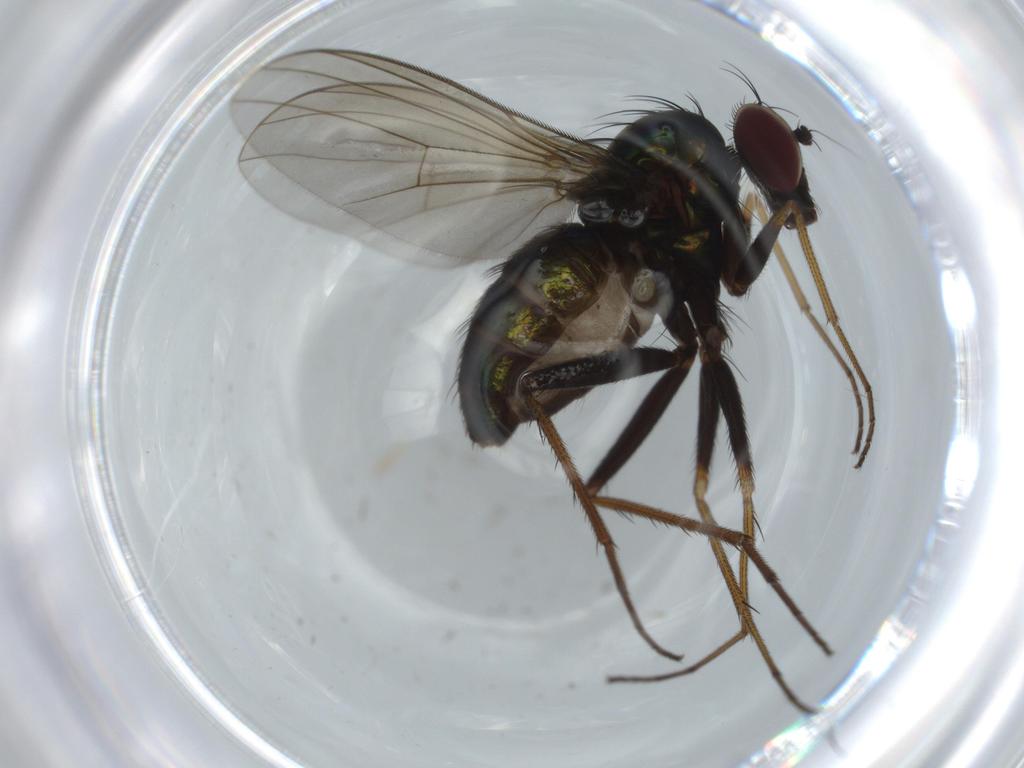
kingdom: Animalia
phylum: Arthropoda
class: Insecta
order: Diptera
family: Dolichopodidae
